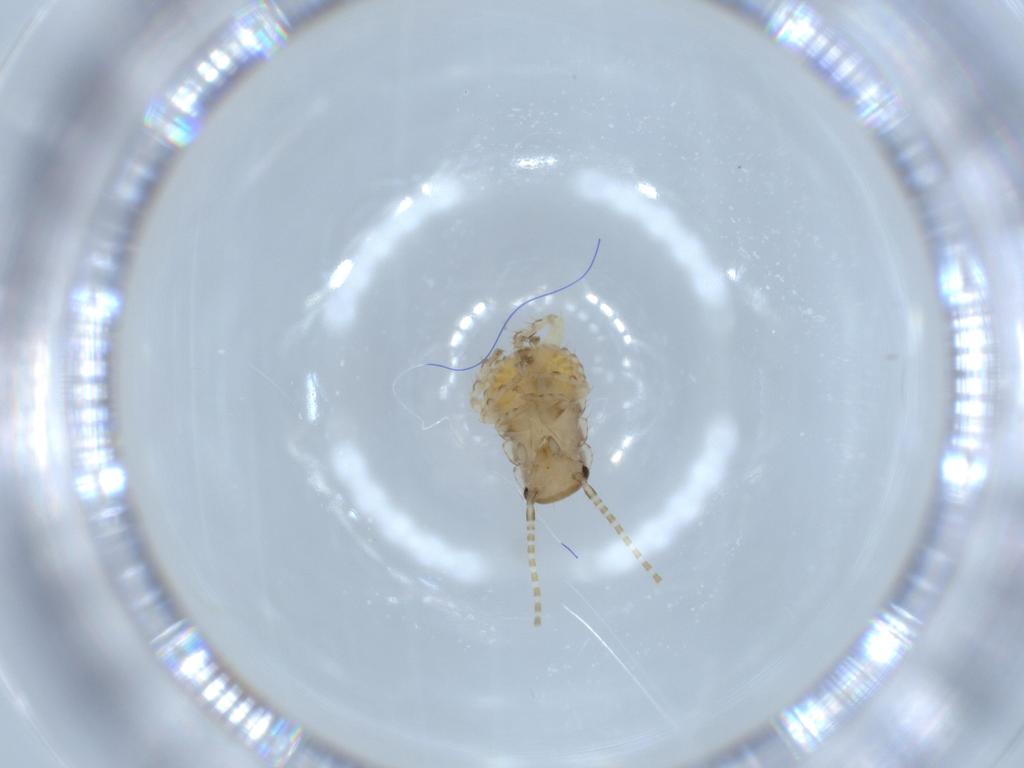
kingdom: Animalia
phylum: Arthropoda
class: Insecta
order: Blattodea
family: Ectobiidae
